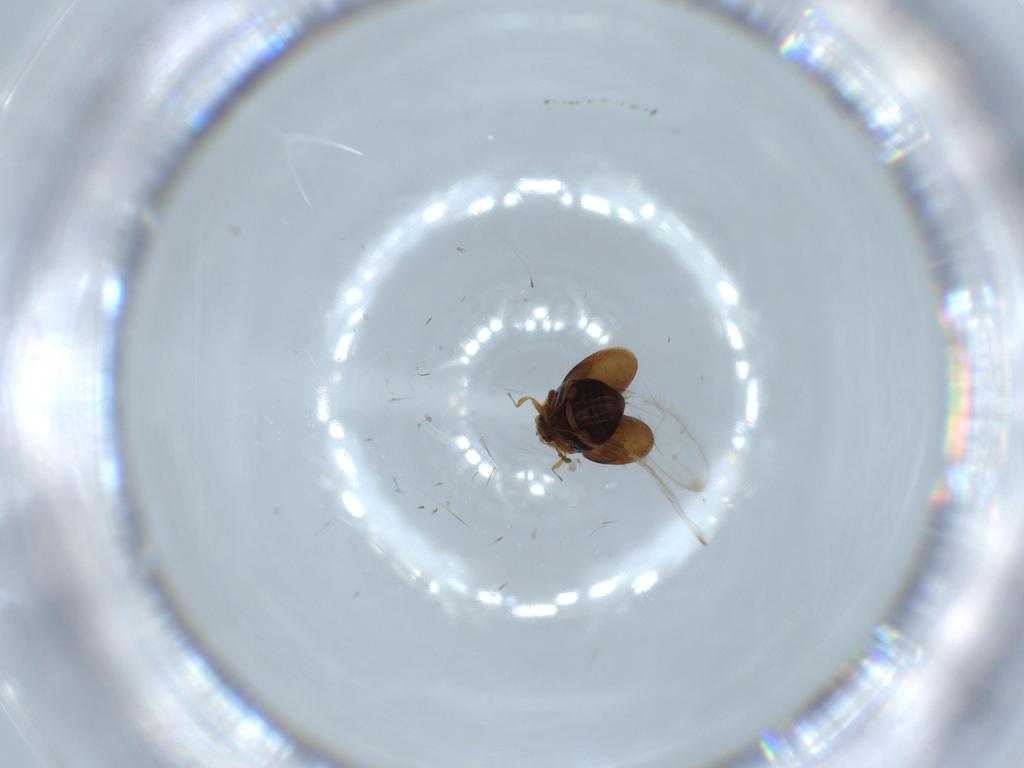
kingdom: Animalia
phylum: Arthropoda
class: Insecta
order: Coleoptera
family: Corylophidae
